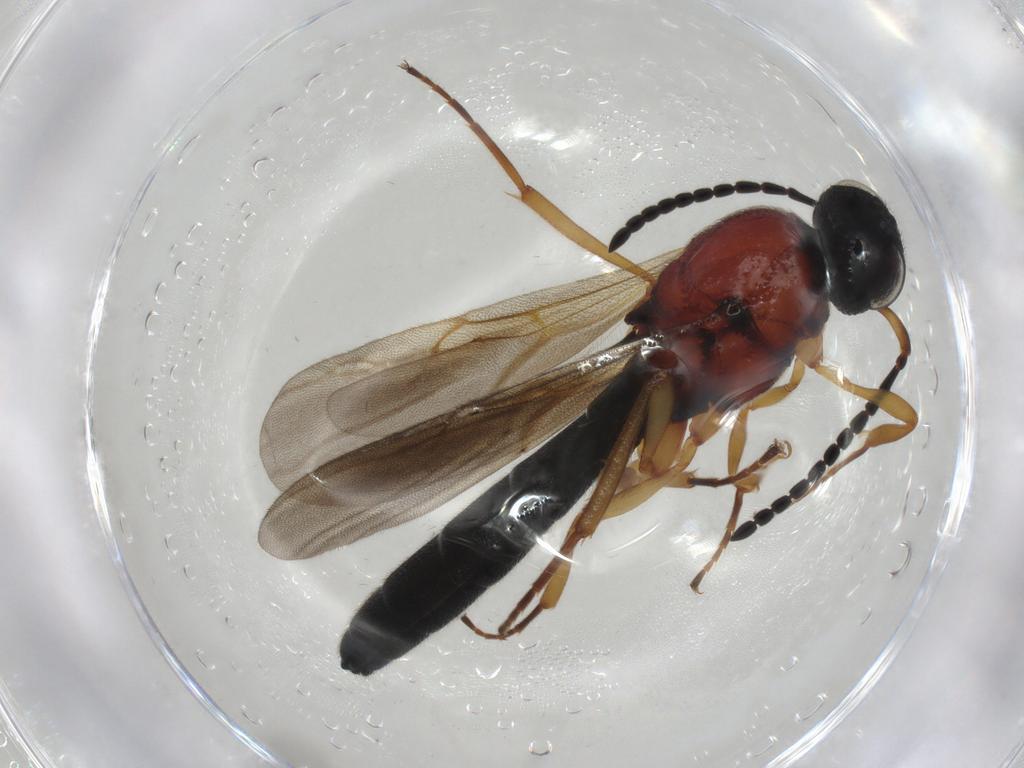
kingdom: Animalia
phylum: Arthropoda
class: Insecta
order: Hymenoptera
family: Scelionidae
